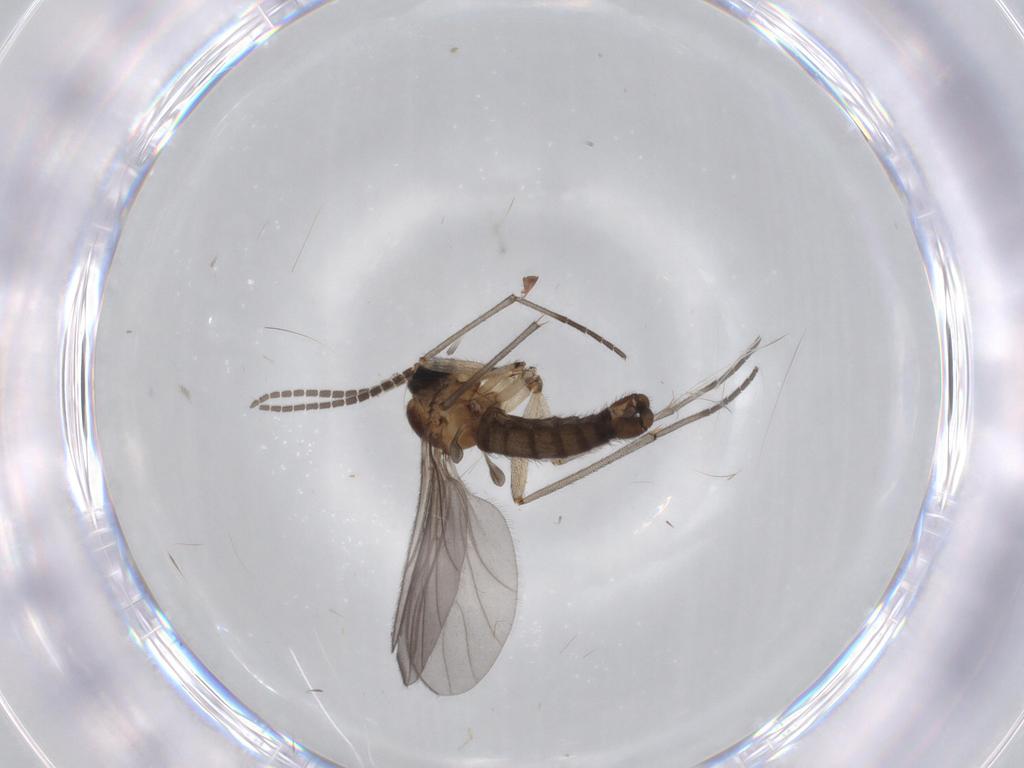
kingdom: Animalia
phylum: Arthropoda
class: Insecta
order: Diptera
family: Sciaridae
